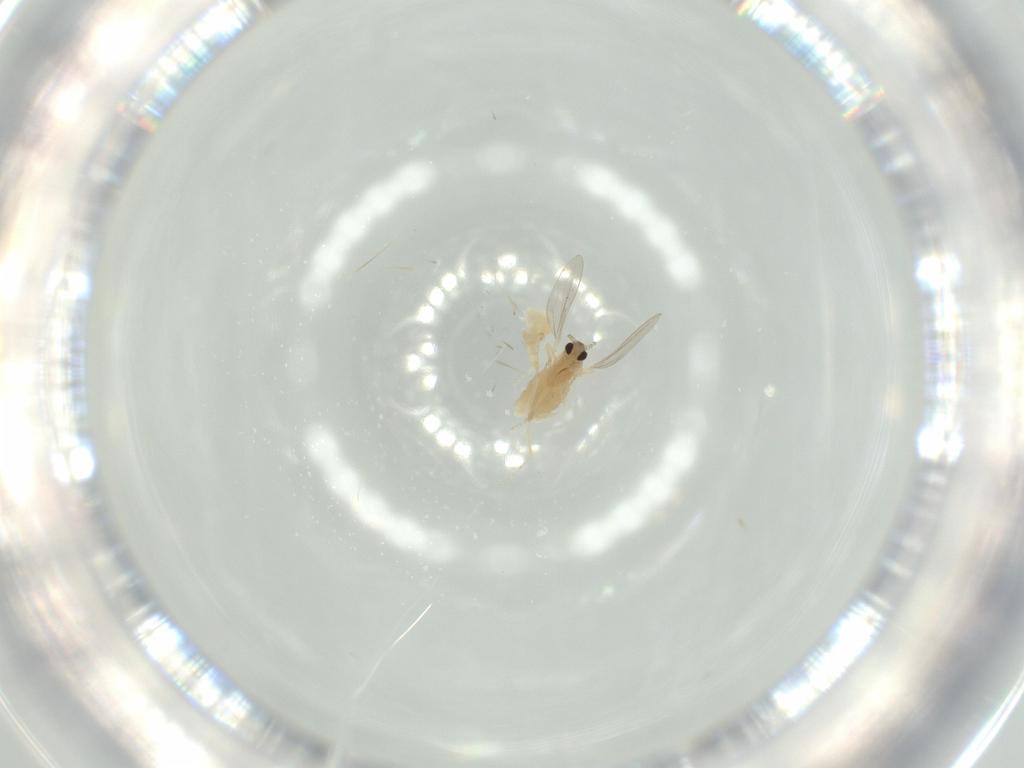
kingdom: Animalia
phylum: Arthropoda
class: Insecta
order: Diptera
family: Cecidomyiidae
